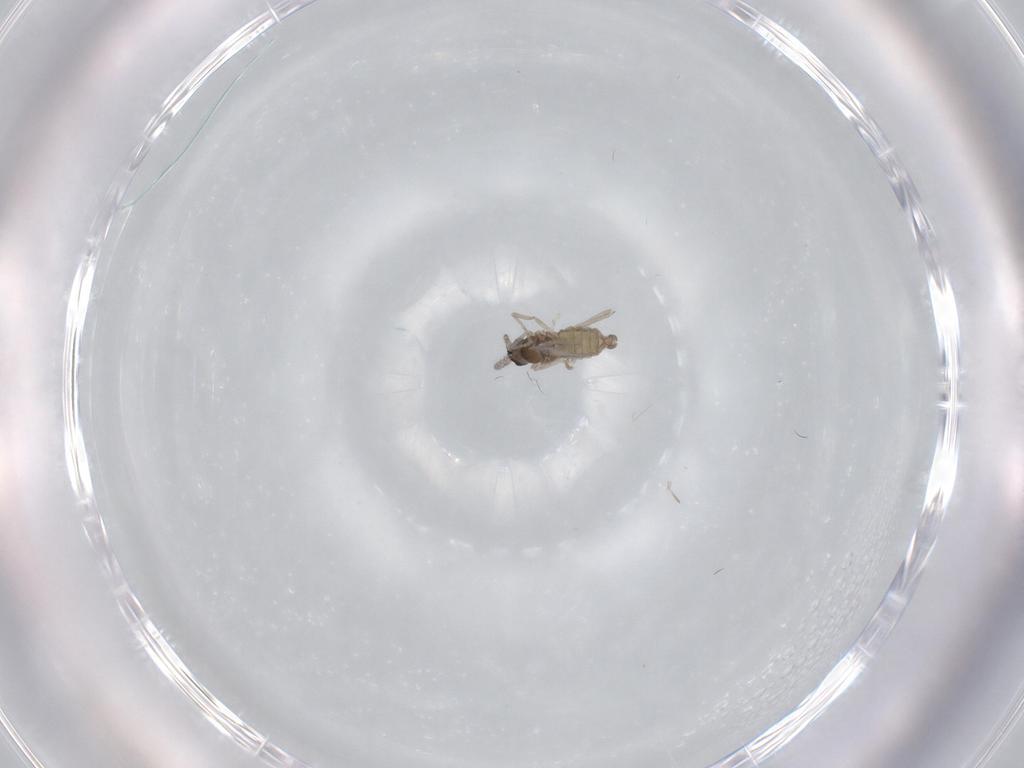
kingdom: Animalia
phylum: Arthropoda
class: Insecta
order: Diptera
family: Cecidomyiidae
